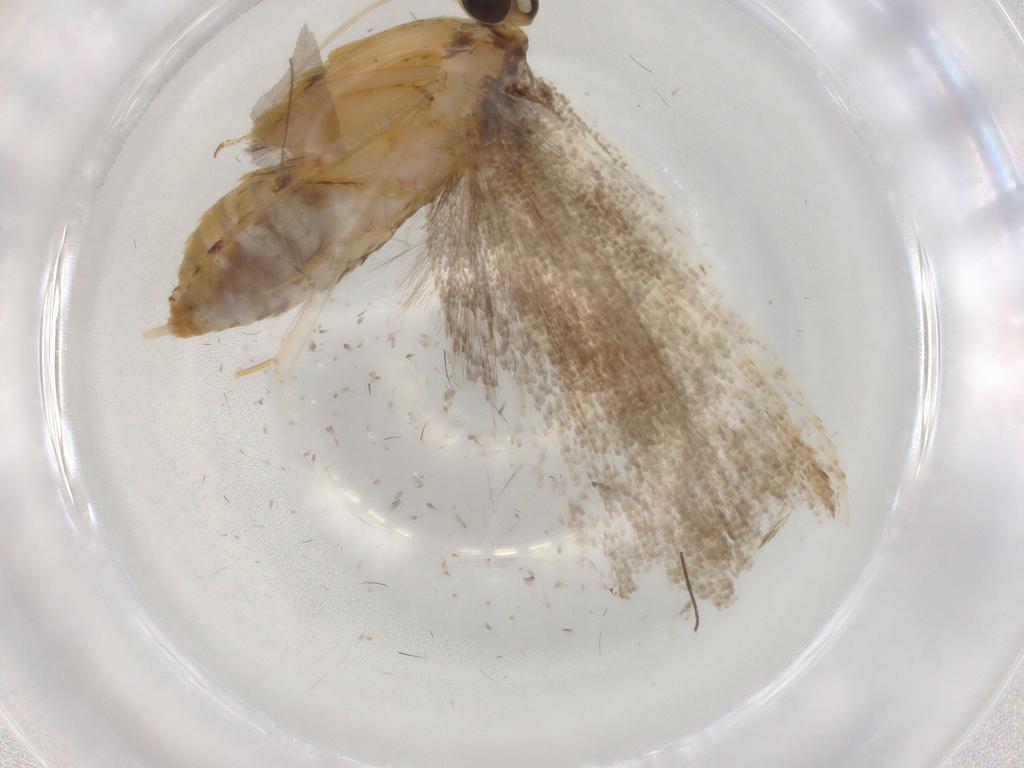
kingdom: Animalia
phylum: Arthropoda
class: Insecta
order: Lepidoptera
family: Lecithoceridae
